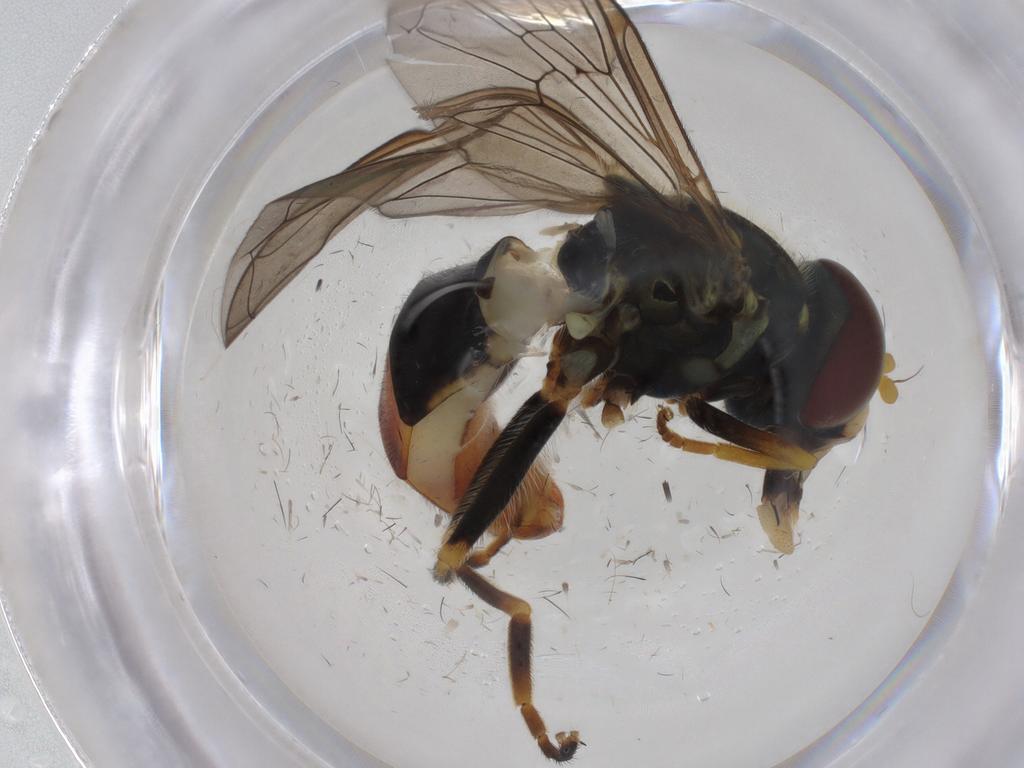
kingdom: Animalia
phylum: Arthropoda
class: Insecta
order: Diptera
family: Syrphidae
